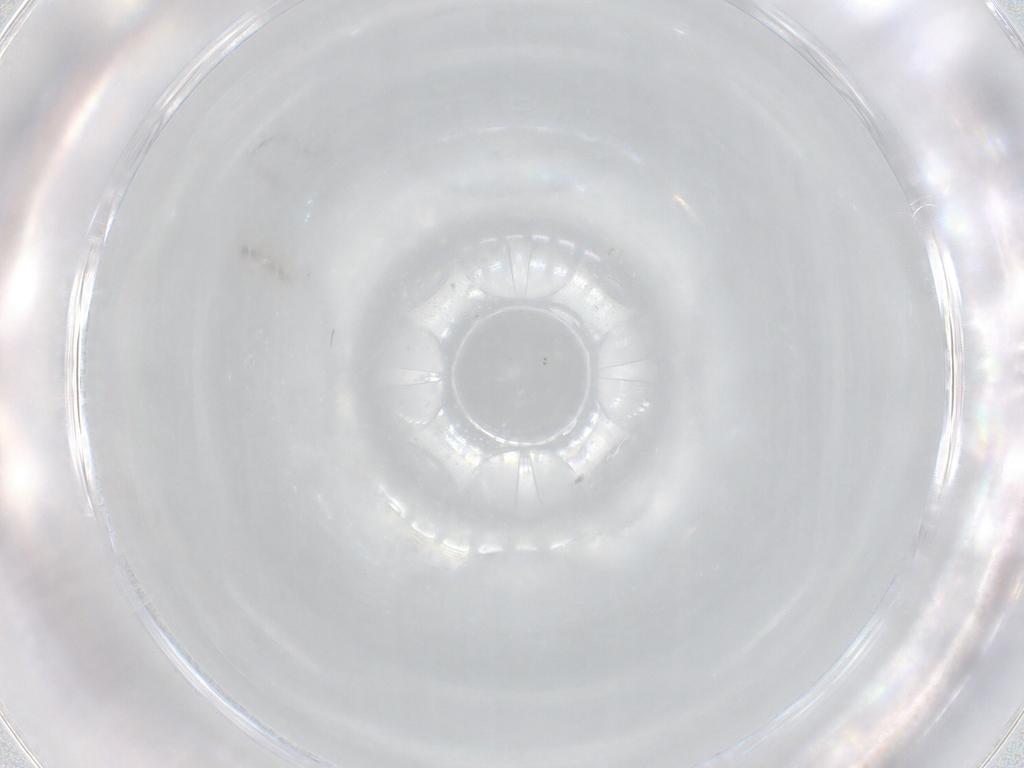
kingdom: Animalia
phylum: Arthropoda
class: Insecta
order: Diptera
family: Cecidomyiidae
